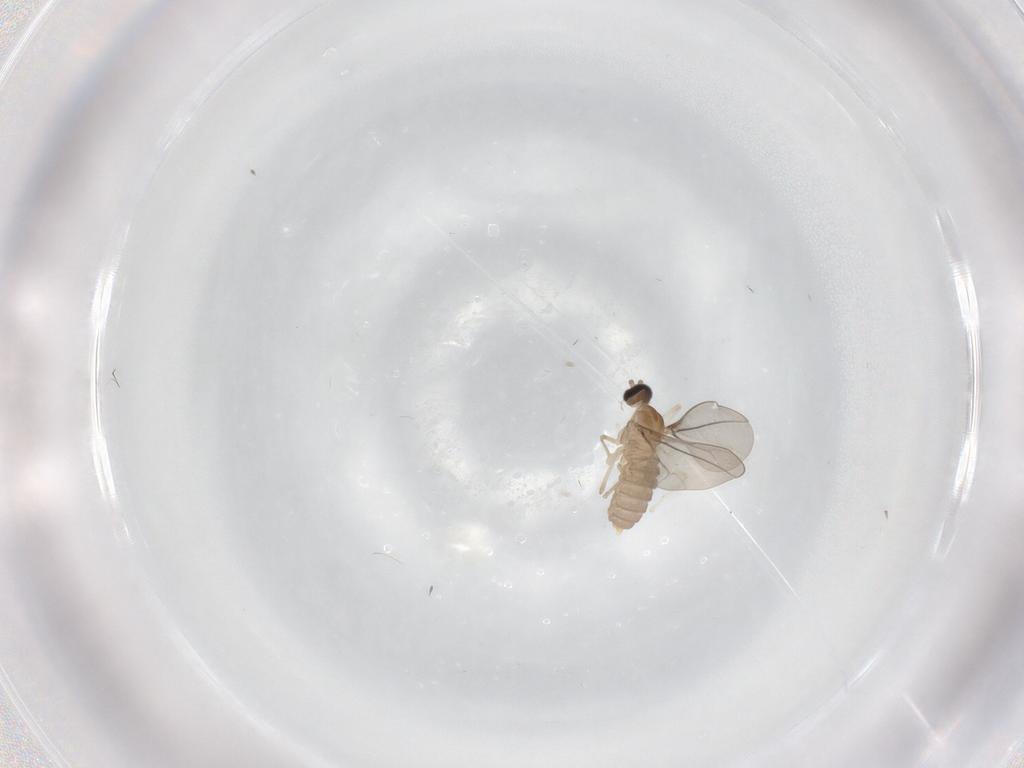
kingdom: Animalia
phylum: Arthropoda
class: Insecta
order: Diptera
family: Cecidomyiidae
